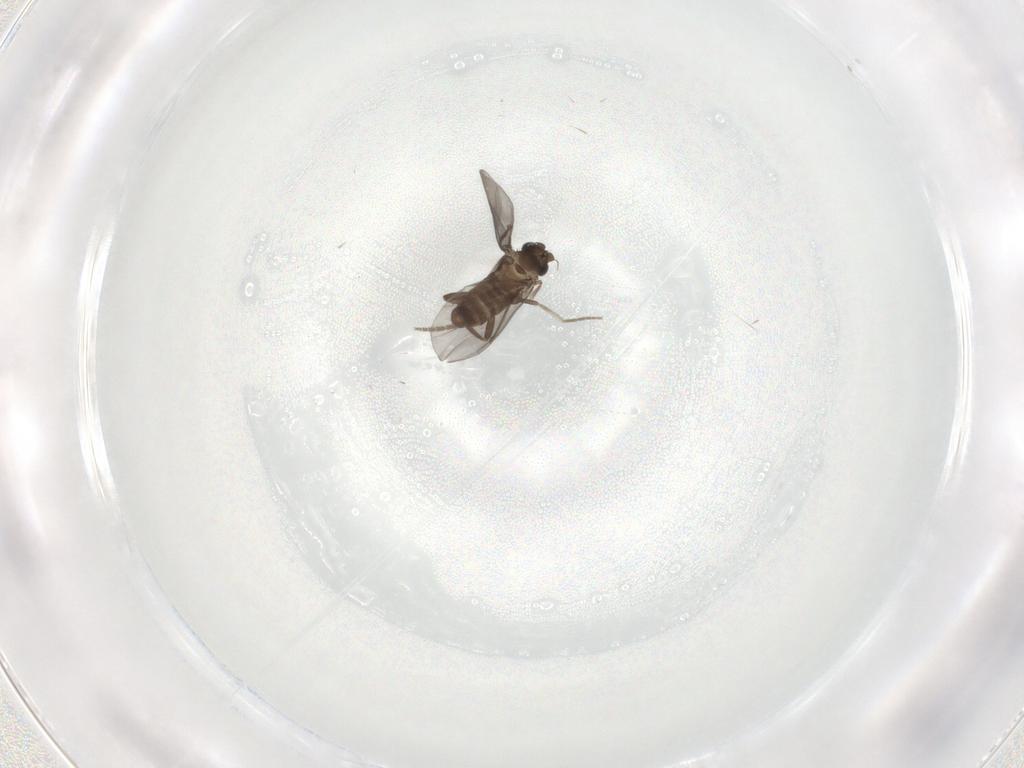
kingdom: Animalia
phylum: Arthropoda
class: Insecta
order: Diptera
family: Phoridae
